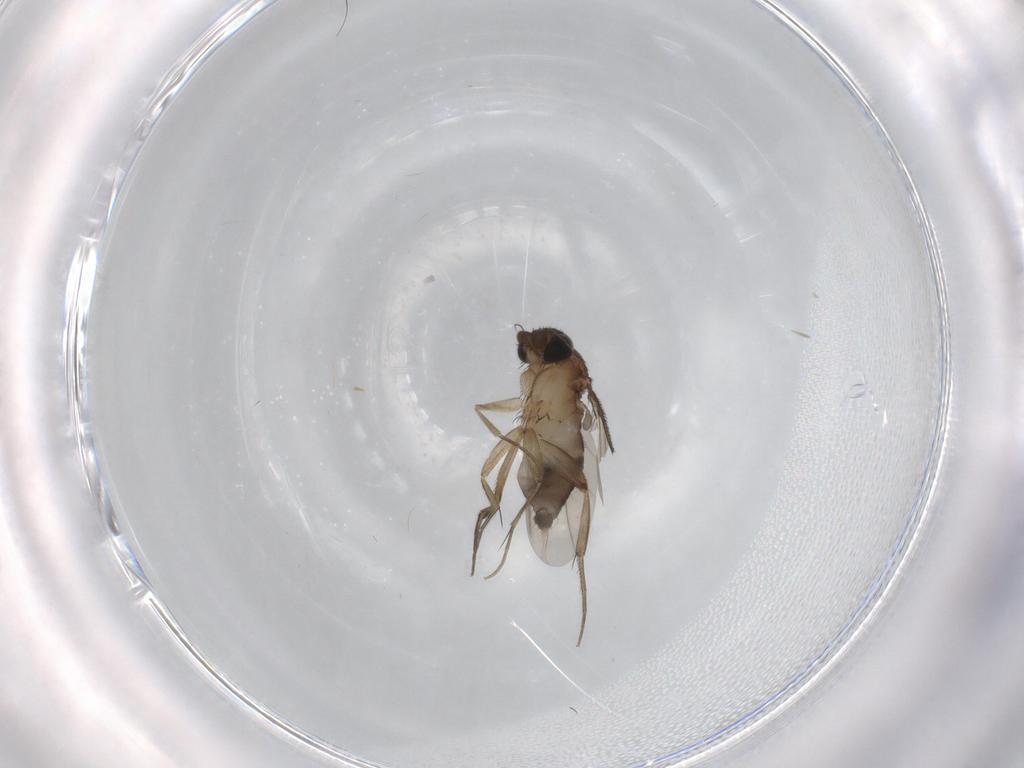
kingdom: Animalia
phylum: Arthropoda
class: Insecta
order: Diptera
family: Phoridae
